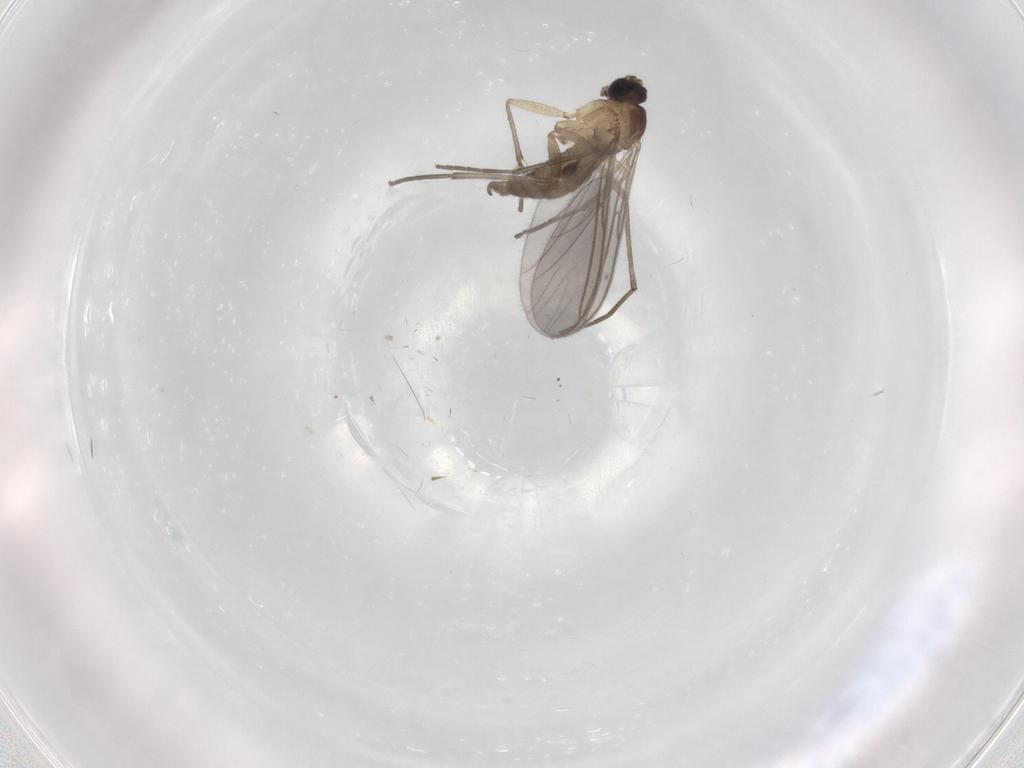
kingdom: Animalia
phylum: Arthropoda
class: Insecta
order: Diptera
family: Sciaridae
